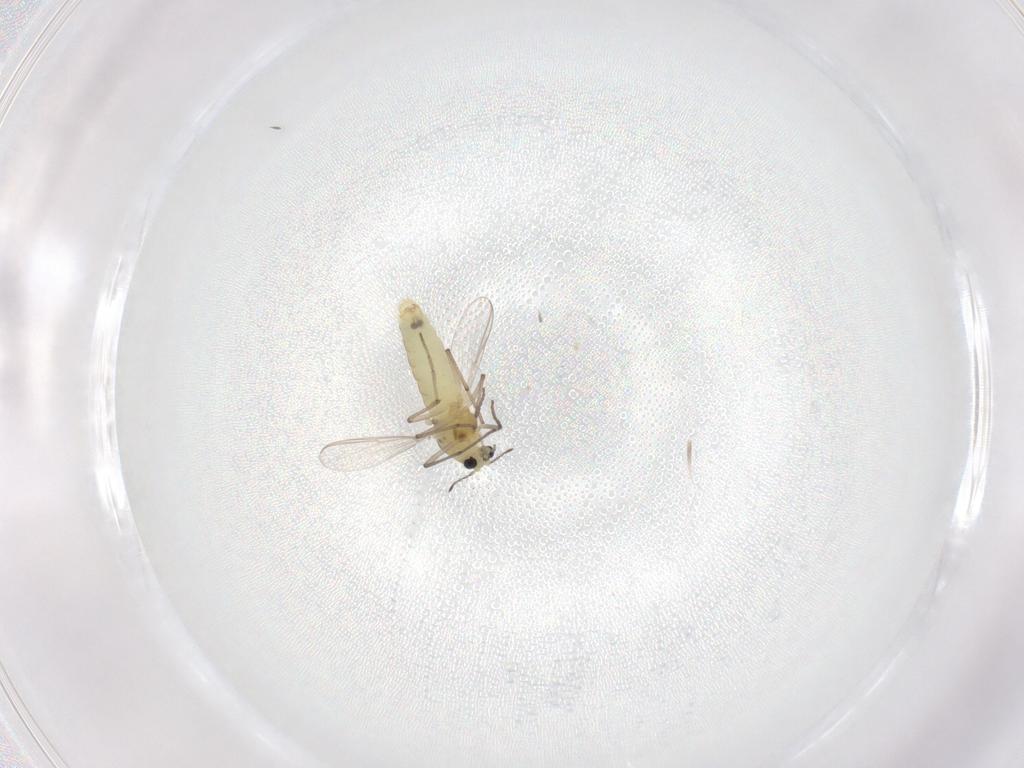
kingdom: Animalia
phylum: Arthropoda
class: Insecta
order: Diptera
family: Chironomidae
